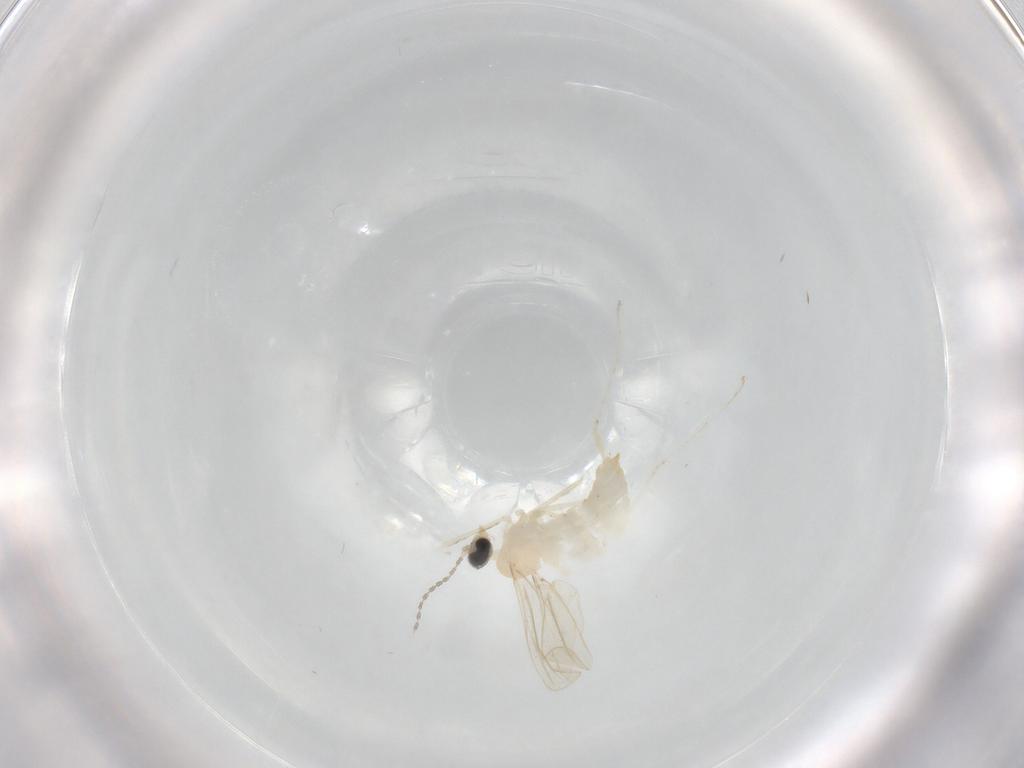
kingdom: Animalia
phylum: Arthropoda
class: Insecta
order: Diptera
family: Cecidomyiidae
